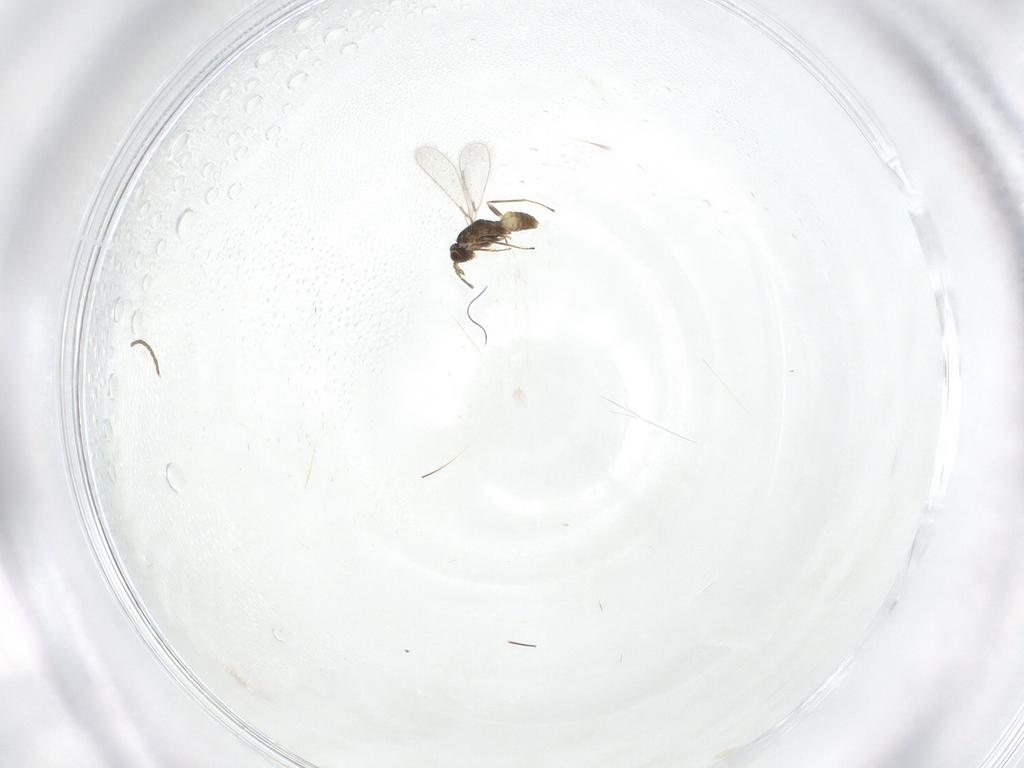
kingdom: Animalia
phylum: Arthropoda
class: Insecta
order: Hymenoptera
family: Mymaridae
